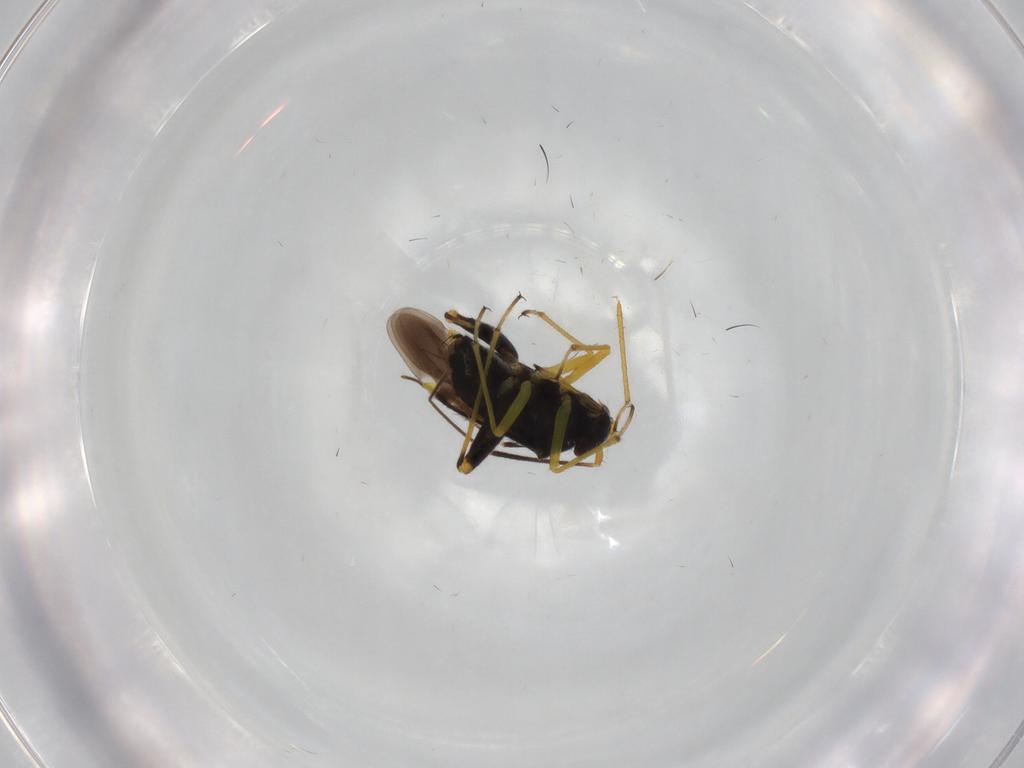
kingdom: Animalia
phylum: Arthropoda
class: Insecta
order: Hemiptera
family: Miridae
